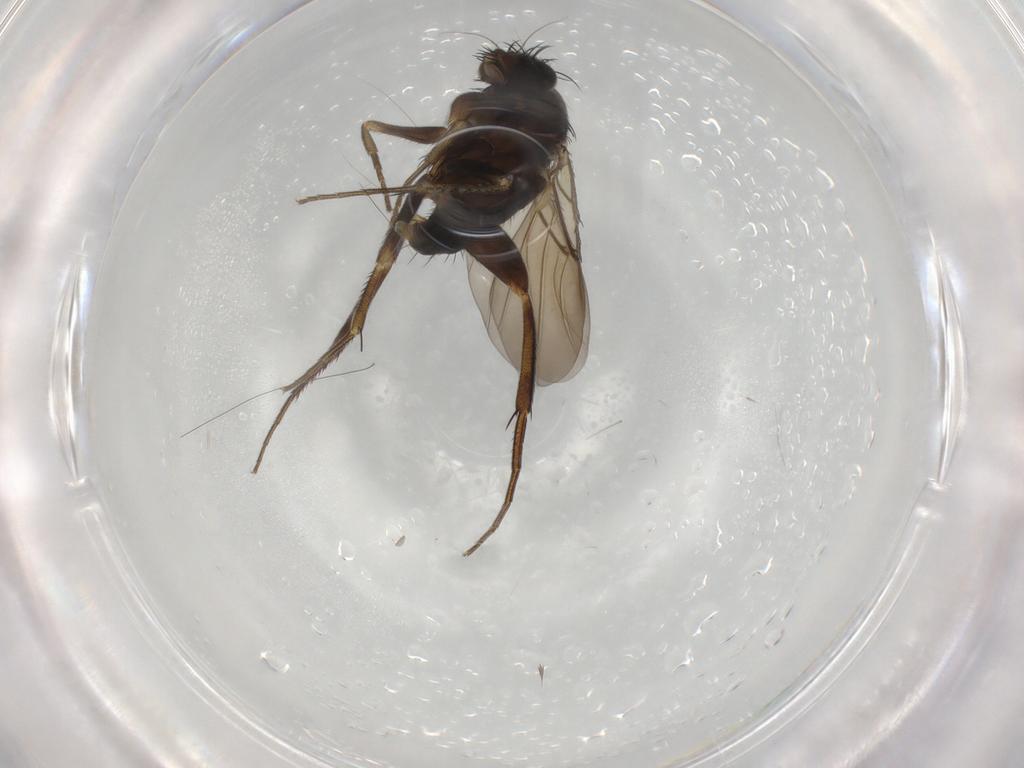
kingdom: Animalia
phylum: Arthropoda
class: Insecta
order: Diptera
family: Phoridae
